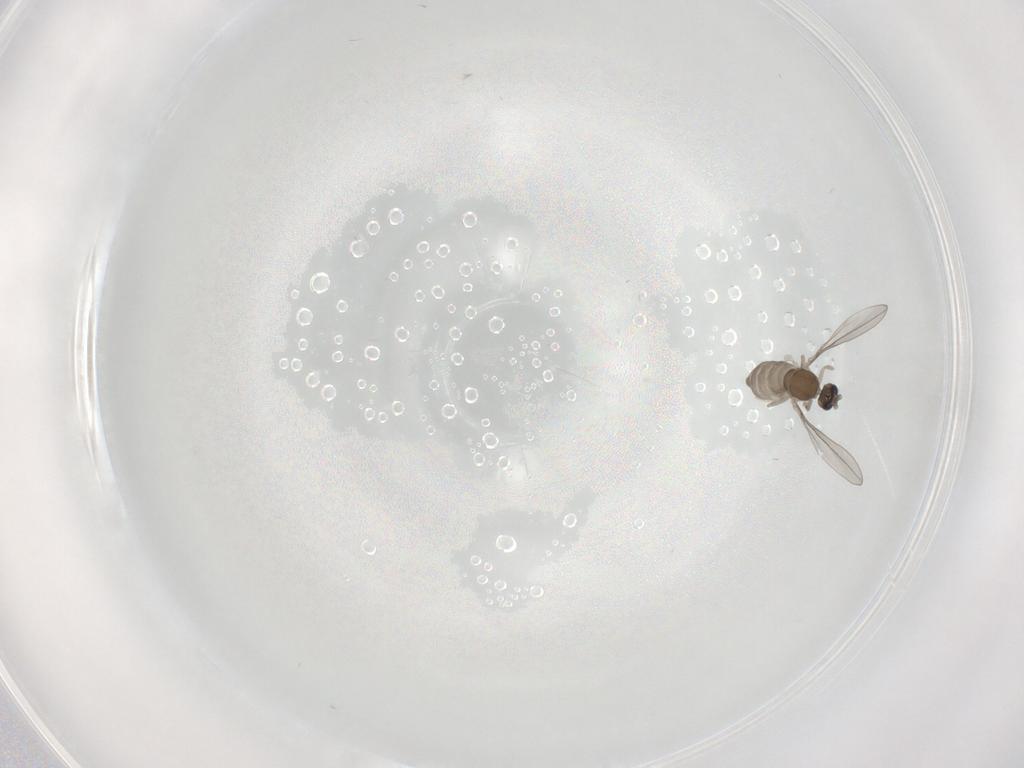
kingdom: Animalia
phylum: Arthropoda
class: Insecta
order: Diptera
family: Cecidomyiidae
